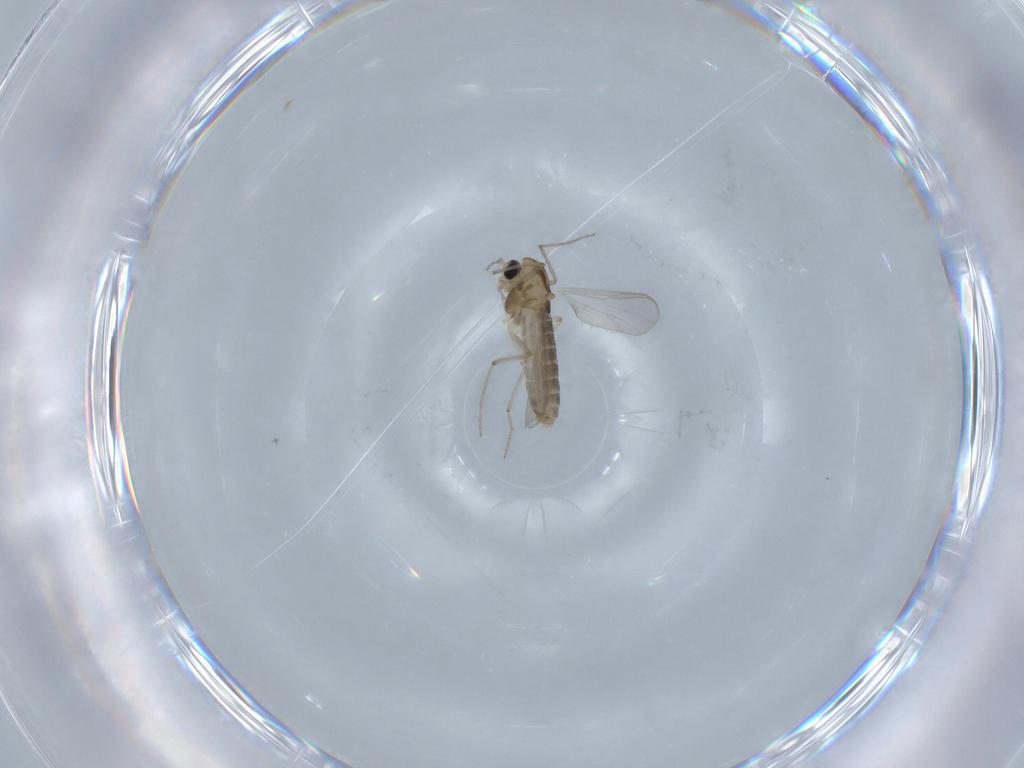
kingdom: Animalia
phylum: Arthropoda
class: Insecta
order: Diptera
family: Chironomidae
